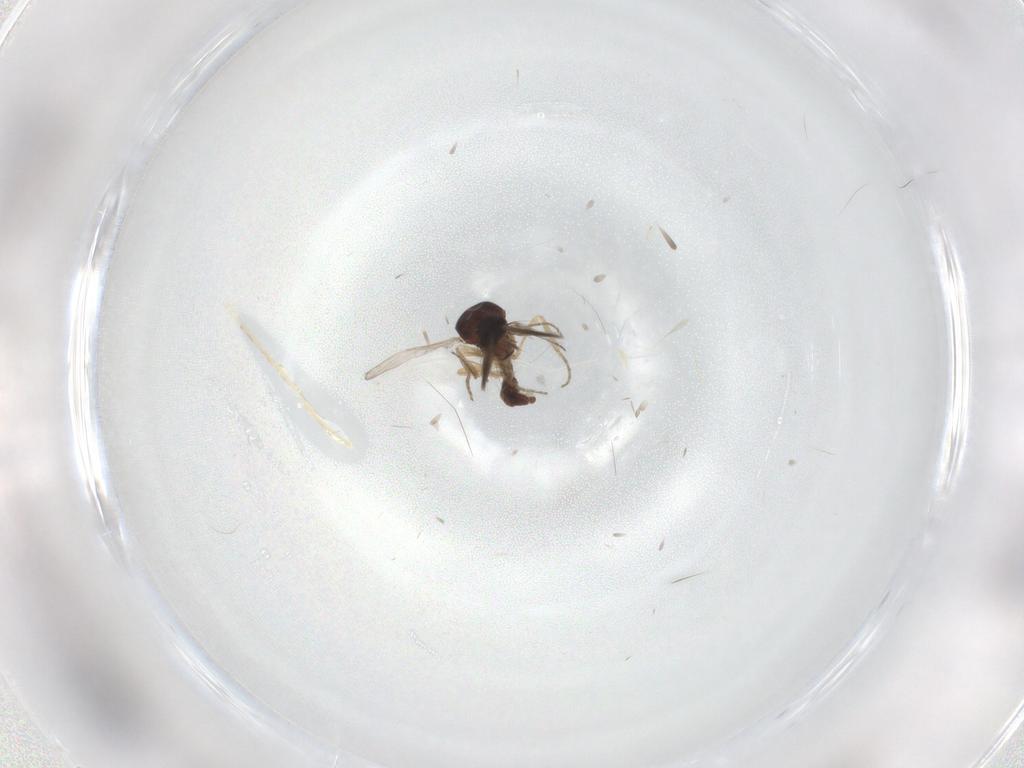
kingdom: Animalia
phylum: Arthropoda
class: Insecta
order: Diptera
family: Ceratopogonidae
